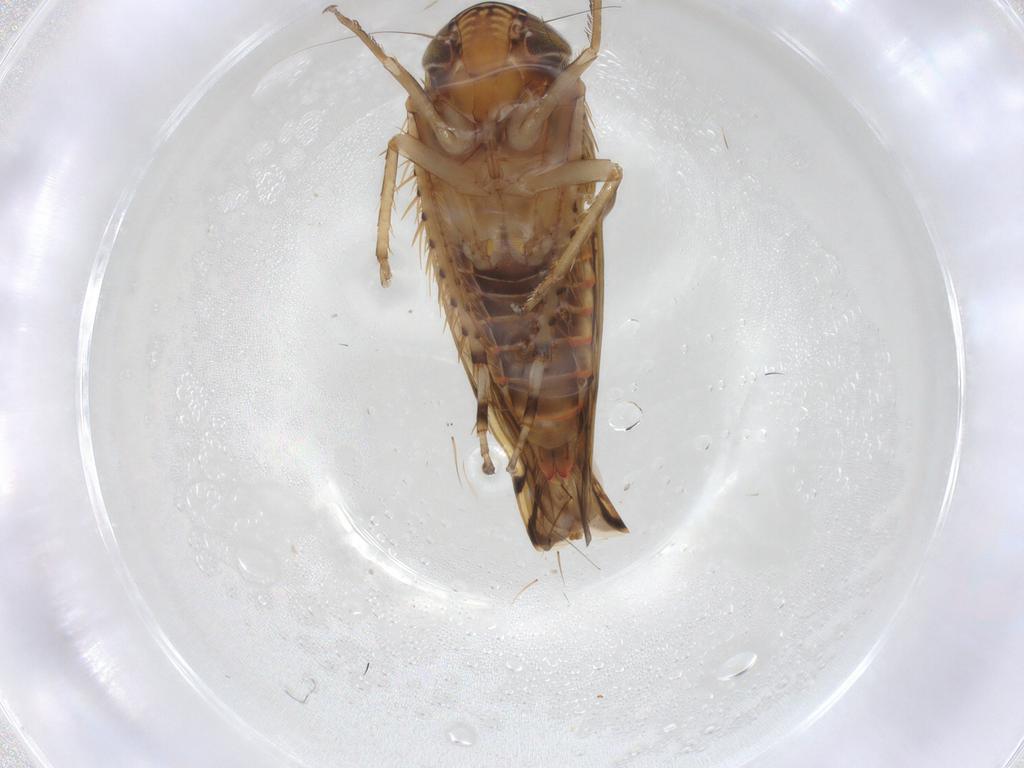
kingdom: Animalia
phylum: Arthropoda
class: Insecta
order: Hemiptera
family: Cicadellidae
